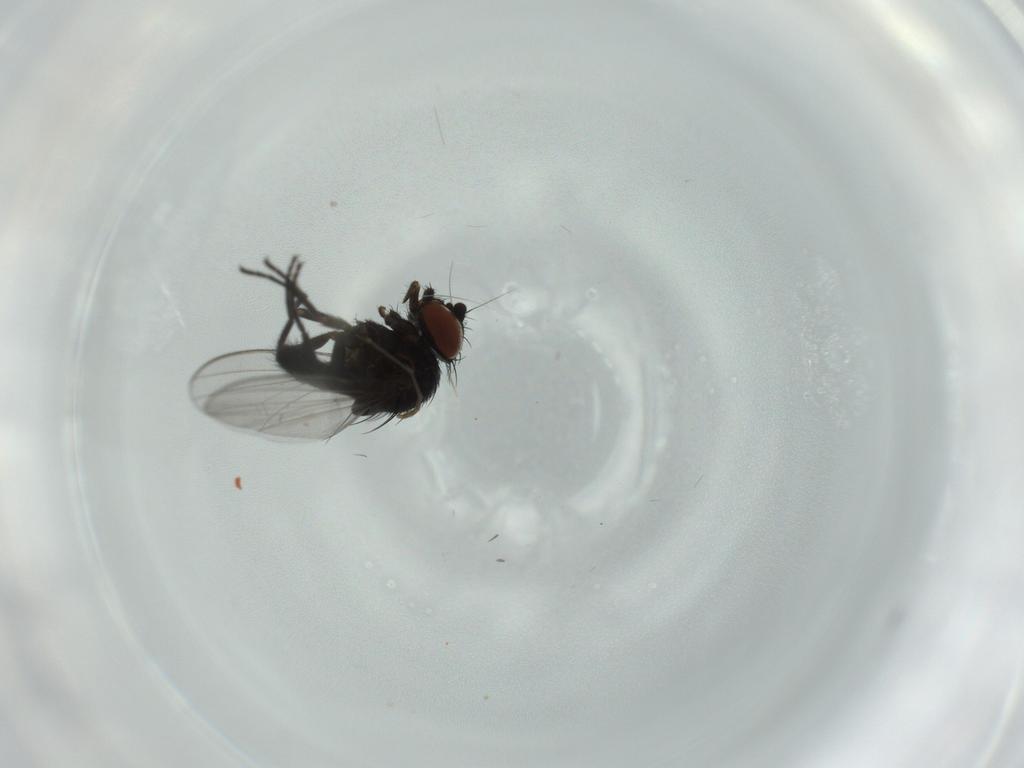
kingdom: Animalia
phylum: Arthropoda
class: Insecta
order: Diptera
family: Milichiidae
